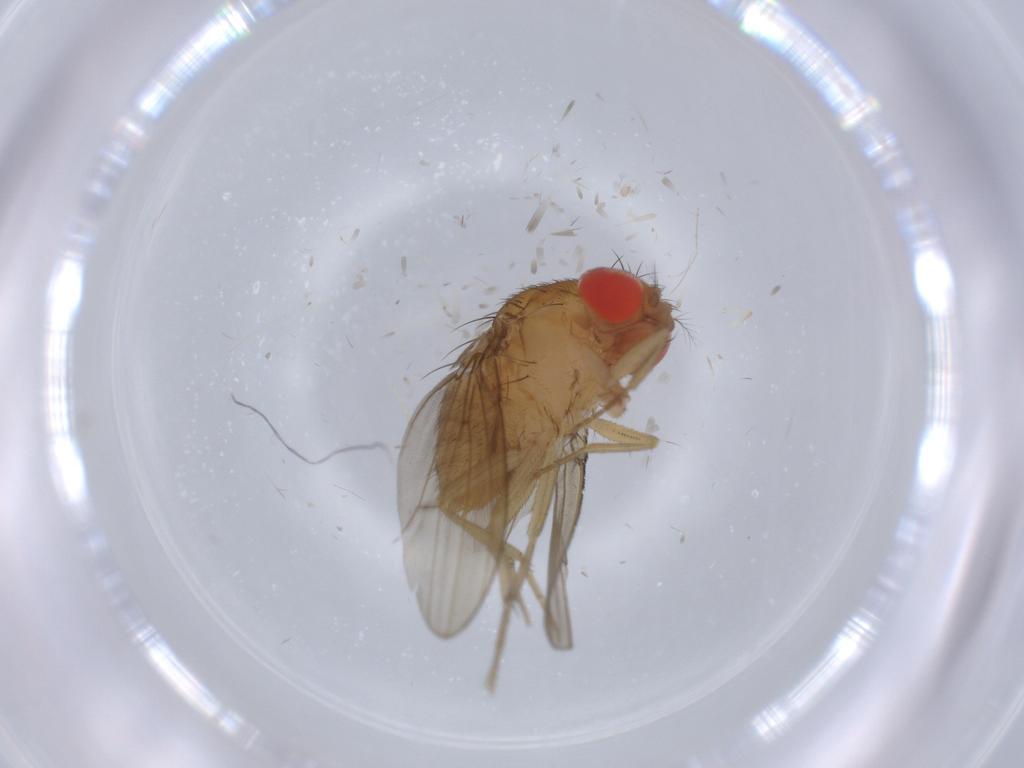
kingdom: Animalia
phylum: Arthropoda
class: Insecta
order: Diptera
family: Drosophilidae
